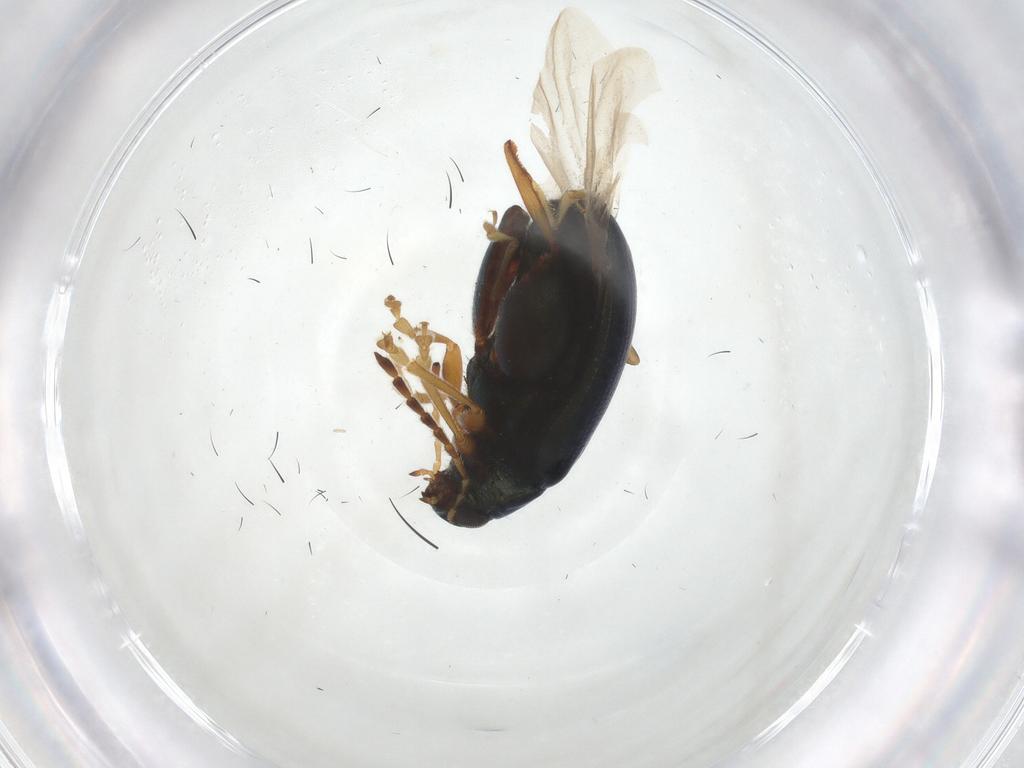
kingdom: Animalia
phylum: Arthropoda
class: Insecta
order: Coleoptera
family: Chrysomelidae
